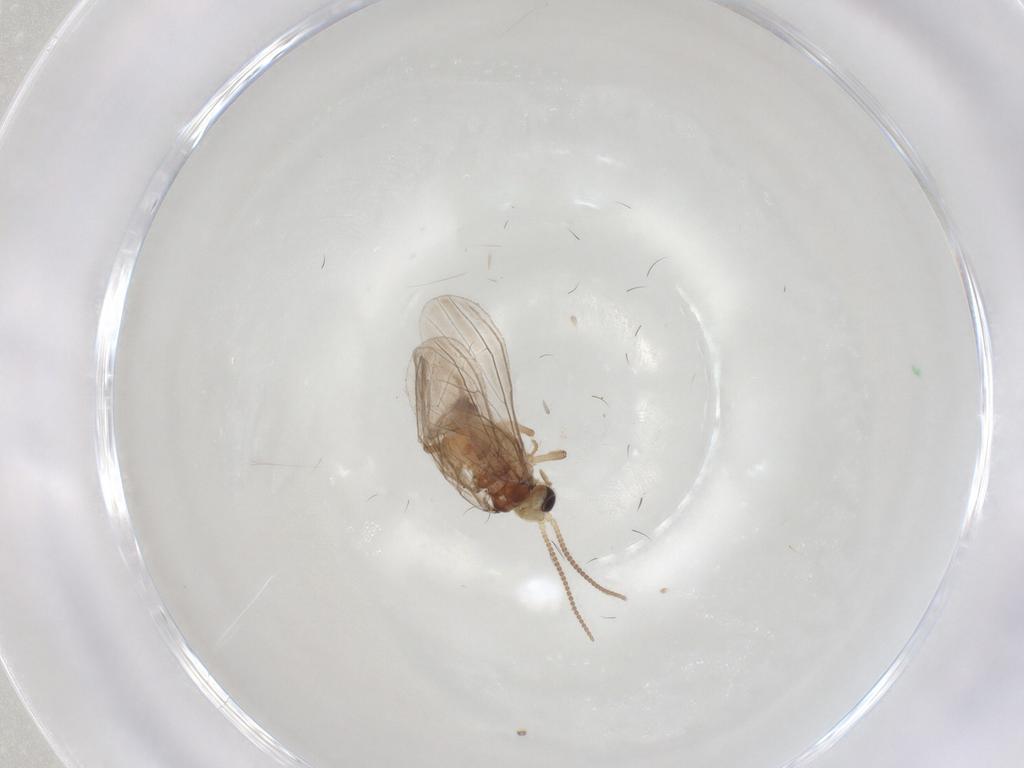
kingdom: Animalia
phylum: Arthropoda
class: Insecta
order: Neuroptera
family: Coniopterygidae
